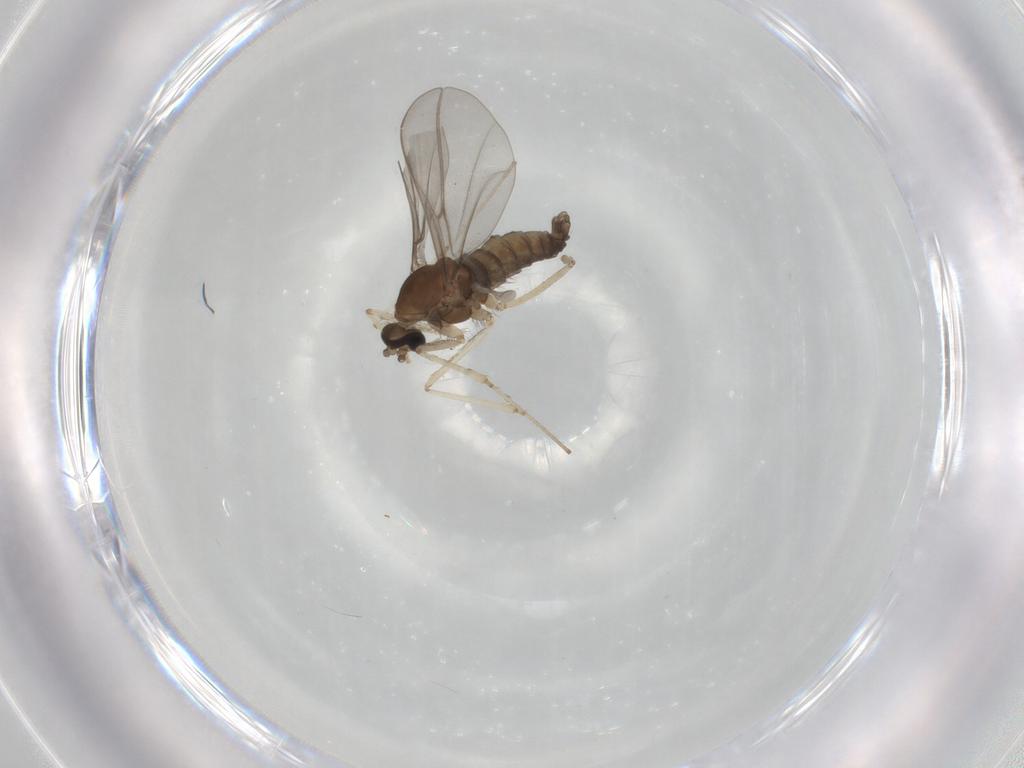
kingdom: Animalia
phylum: Arthropoda
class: Insecta
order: Diptera
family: Cecidomyiidae
